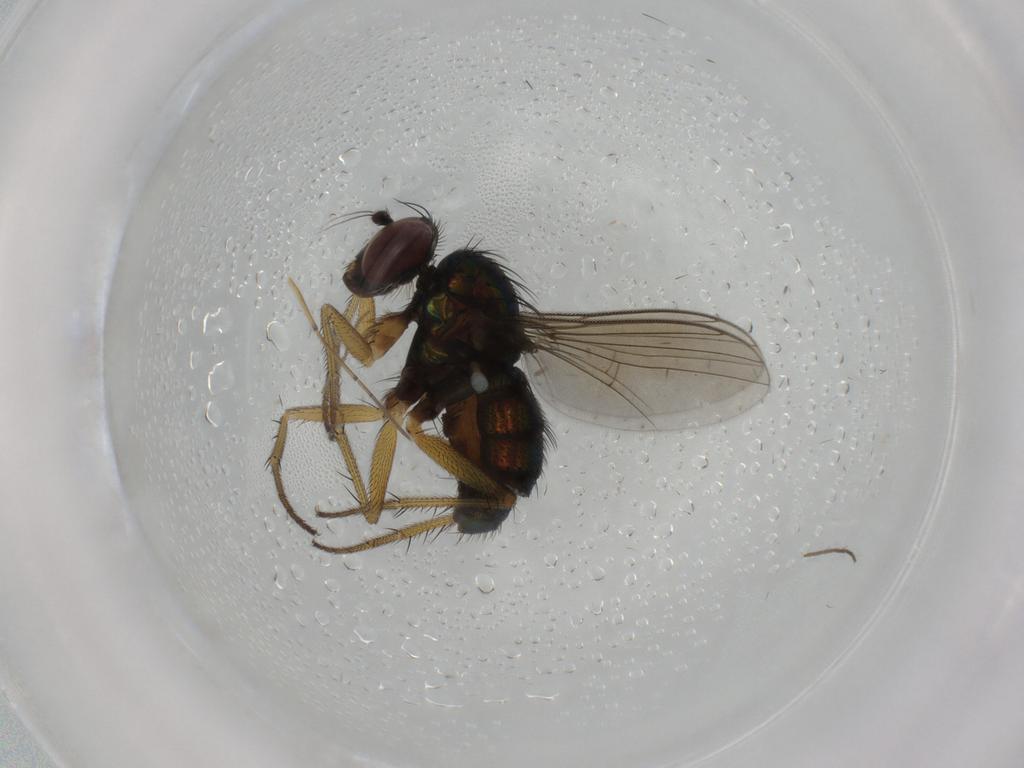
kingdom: Animalia
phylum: Arthropoda
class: Insecta
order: Diptera
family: Dolichopodidae
